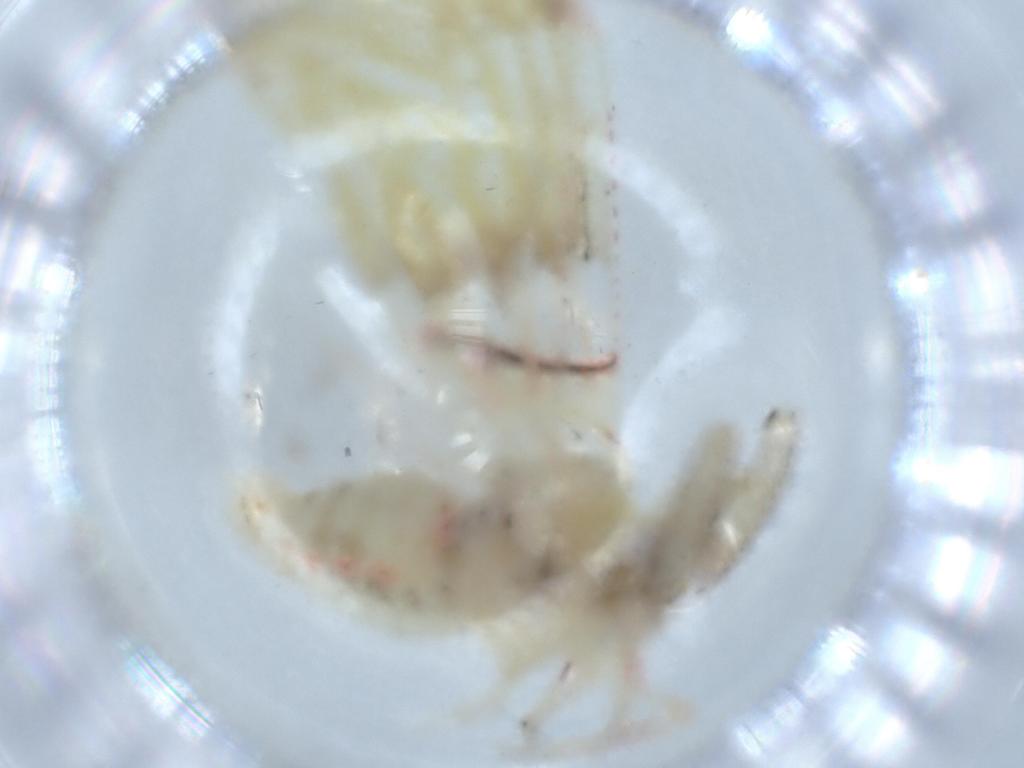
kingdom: Animalia
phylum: Arthropoda
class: Insecta
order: Hemiptera
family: Derbidae
